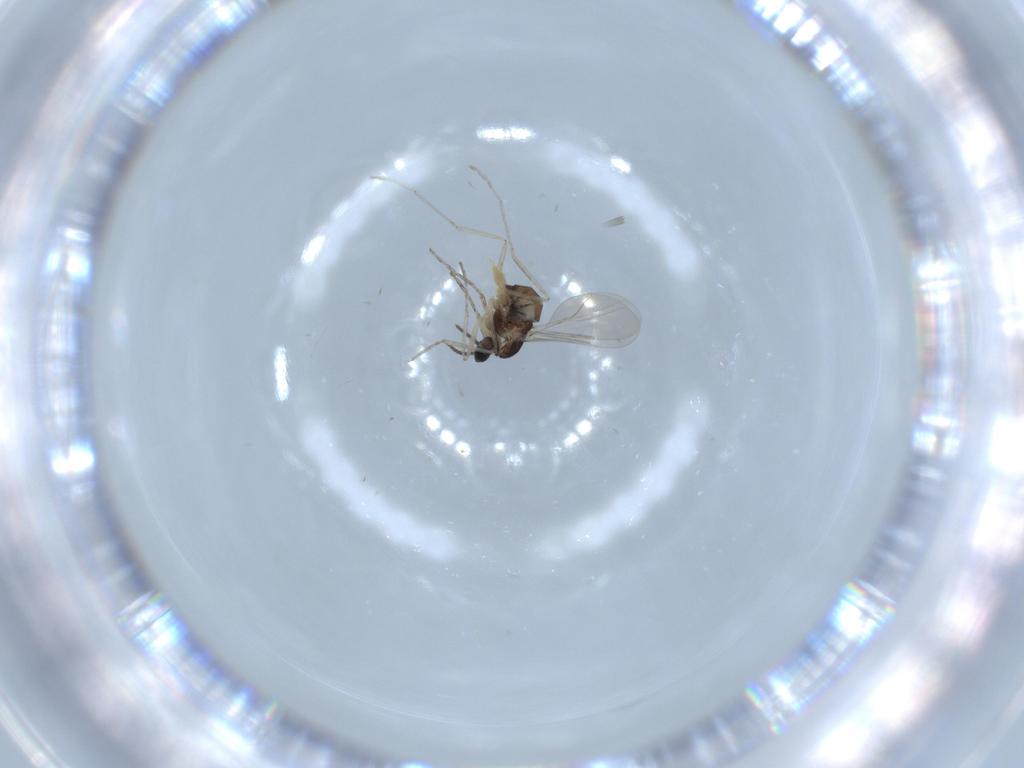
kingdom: Animalia
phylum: Arthropoda
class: Insecta
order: Diptera
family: Cecidomyiidae
